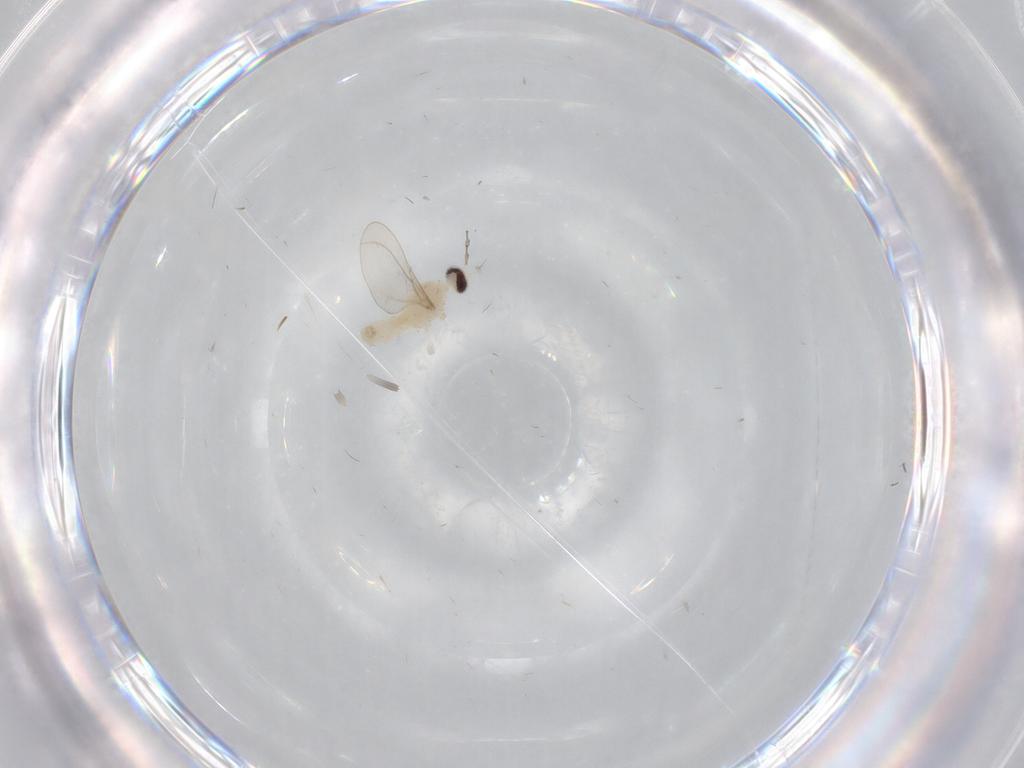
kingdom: Animalia
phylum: Arthropoda
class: Insecta
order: Diptera
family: Cecidomyiidae
